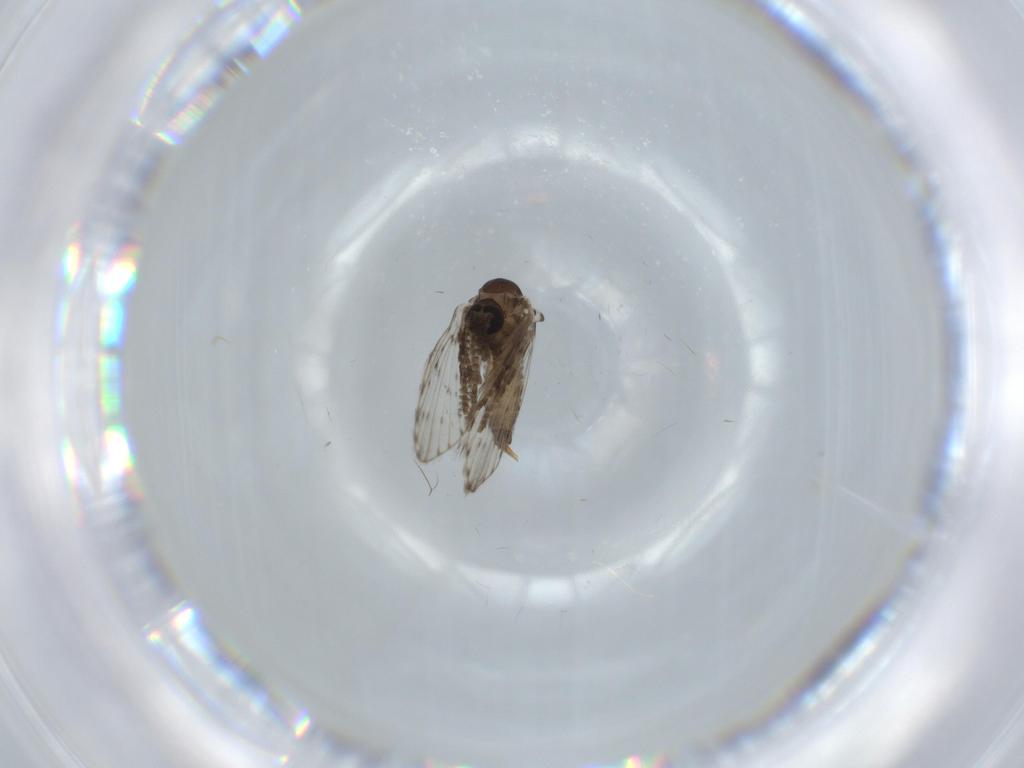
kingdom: Animalia
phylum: Arthropoda
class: Insecta
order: Diptera
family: Psychodidae
